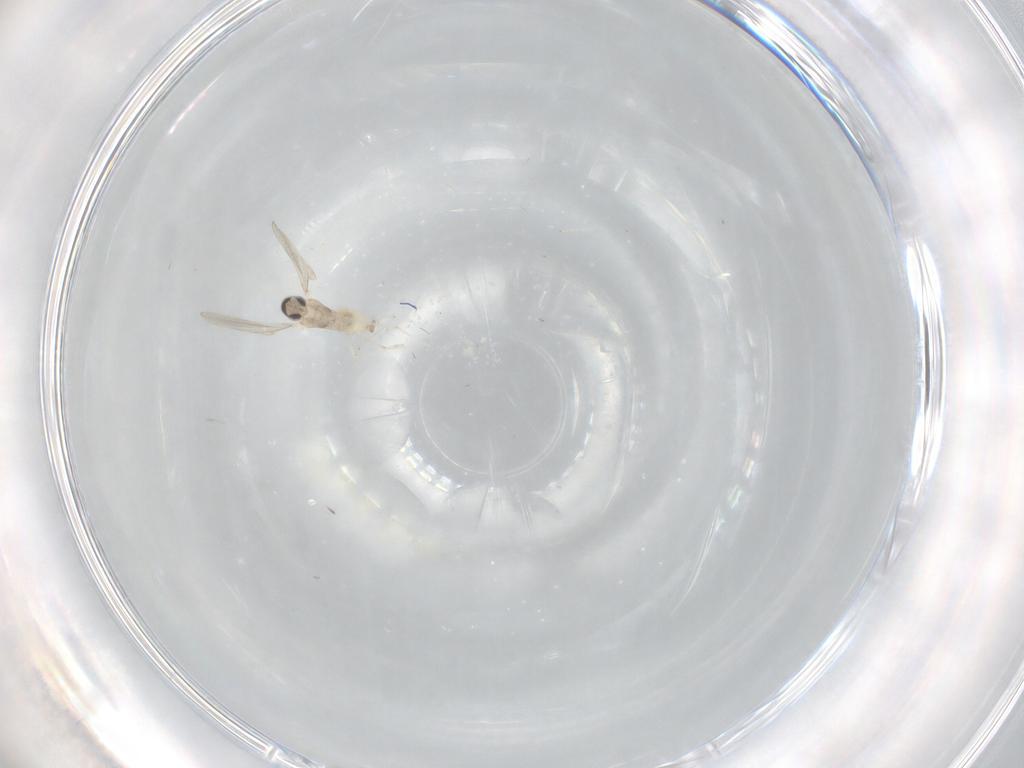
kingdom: Animalia
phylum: Arthropoda
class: Insecta
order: Diptera
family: Cecidomyiidae
